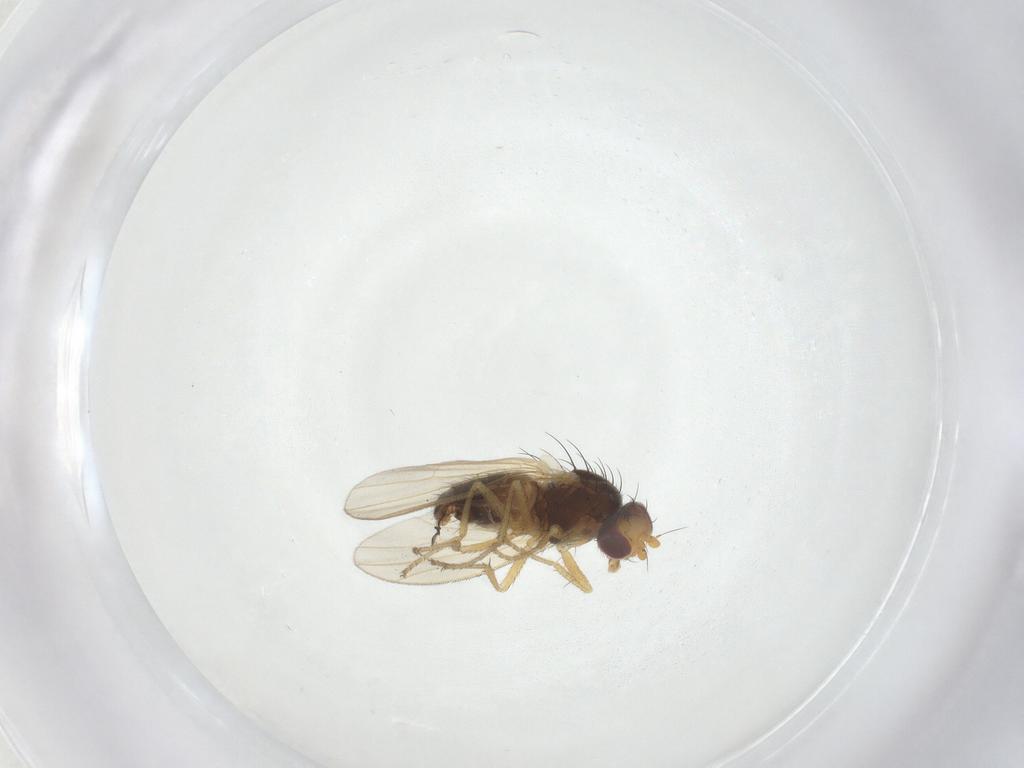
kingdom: Animalia
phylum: Arthropoda
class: Insecta
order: Diptera
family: Heleomyzidae
